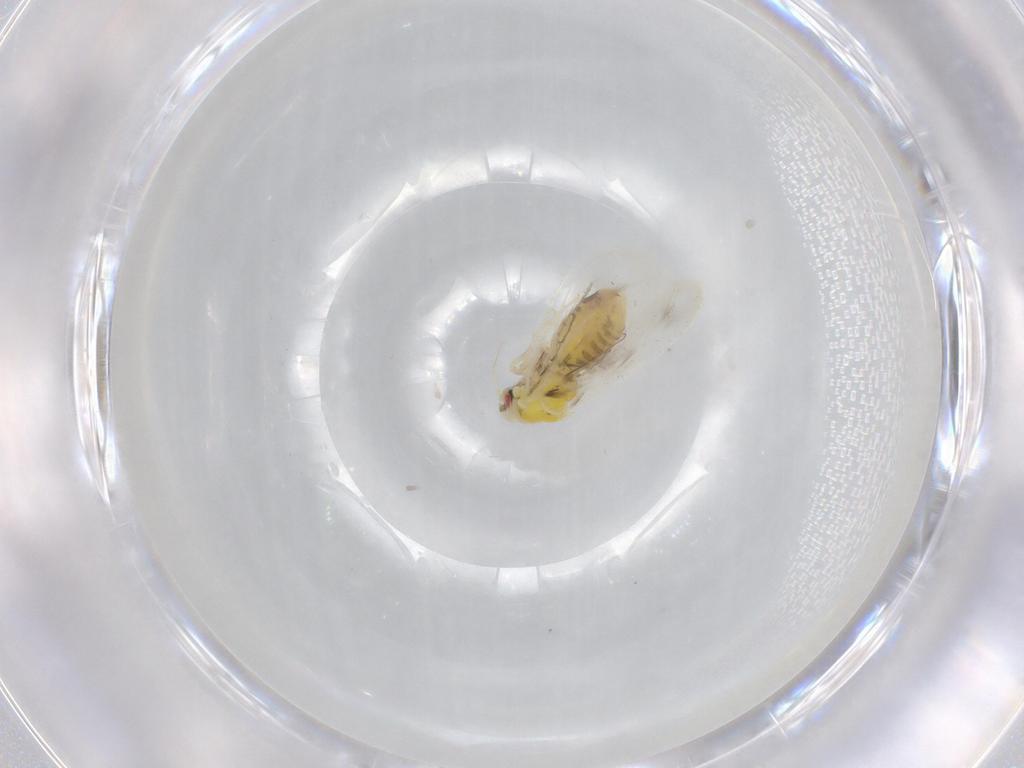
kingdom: Animalia
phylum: Arthropoda
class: Insecta
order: Hemiptera
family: Aleyrodidae
